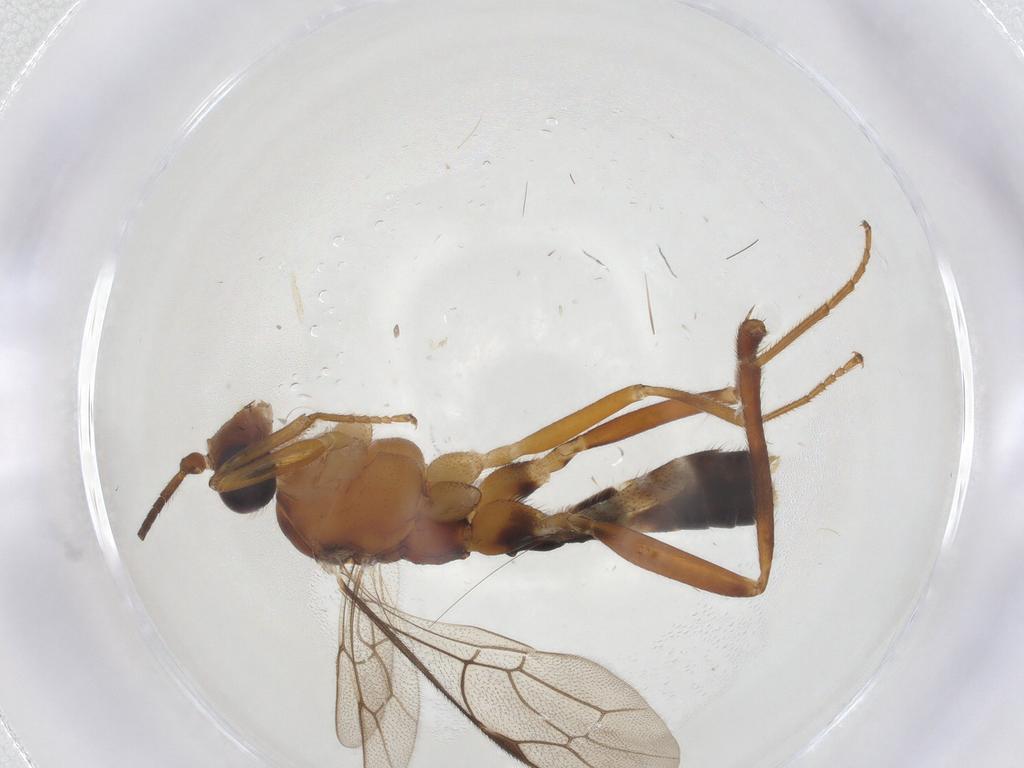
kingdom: Animalia
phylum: Arthropoda
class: Insecta
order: Hymenoptera
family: Ichneumonidae
